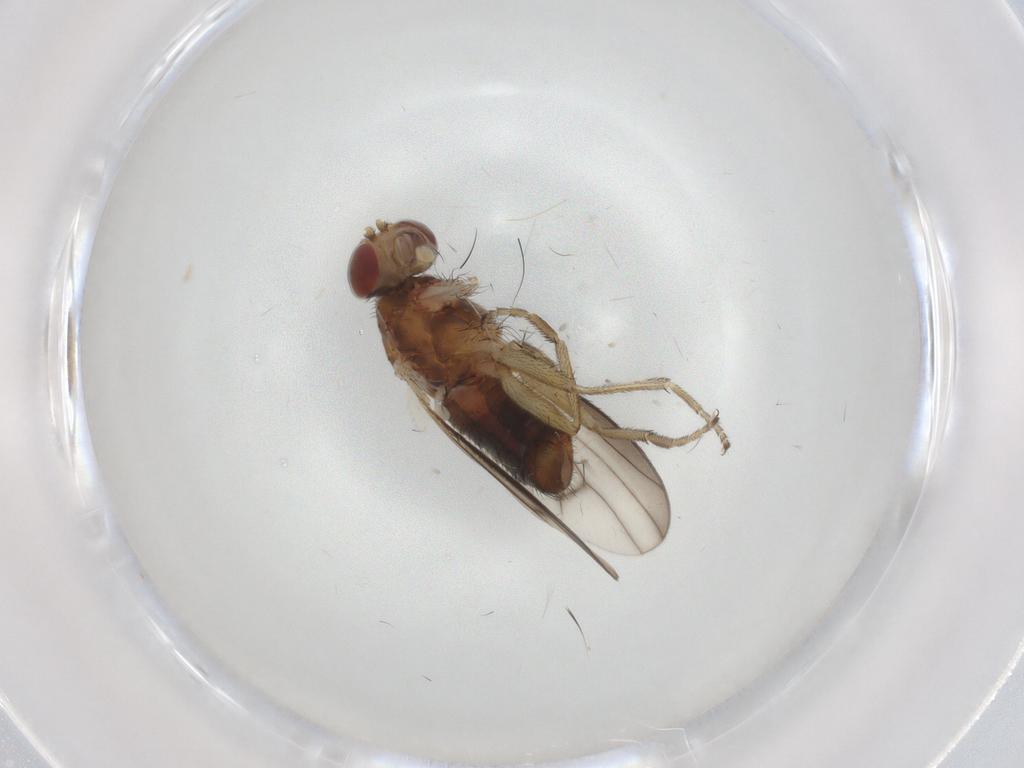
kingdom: Animalia
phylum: Arthropoda
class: Insecta
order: Diptera
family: Heleomyzidae
